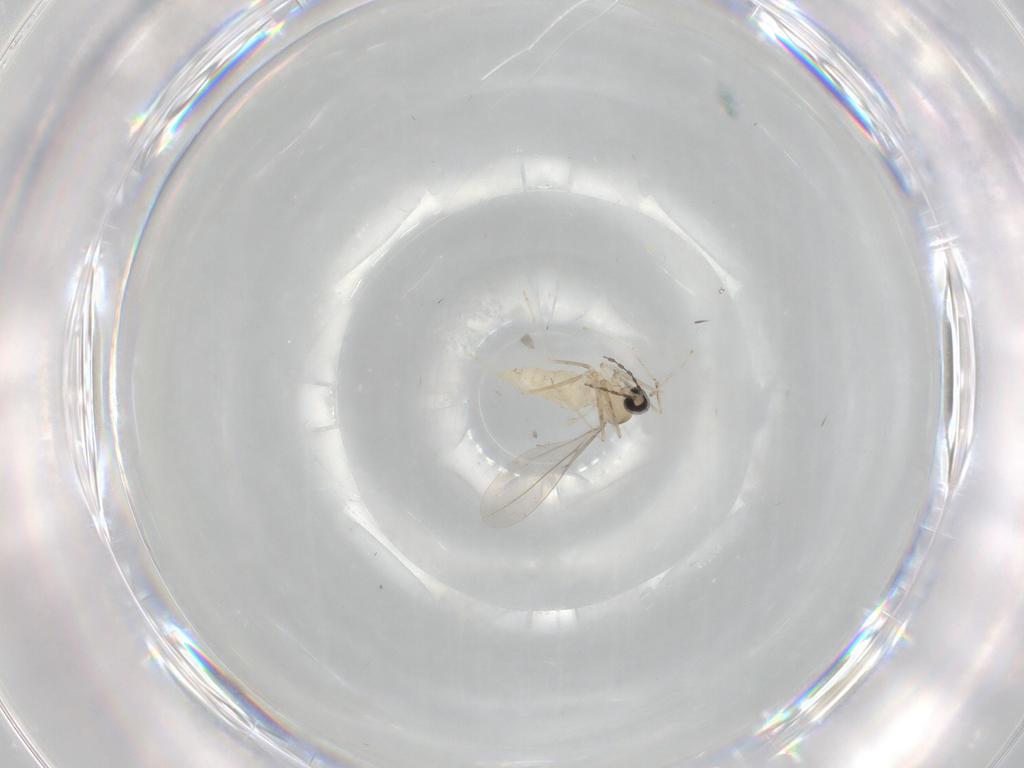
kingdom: Animalia
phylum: Arthropoda
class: Insecta
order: Diptera
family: Cecidomyiidae
